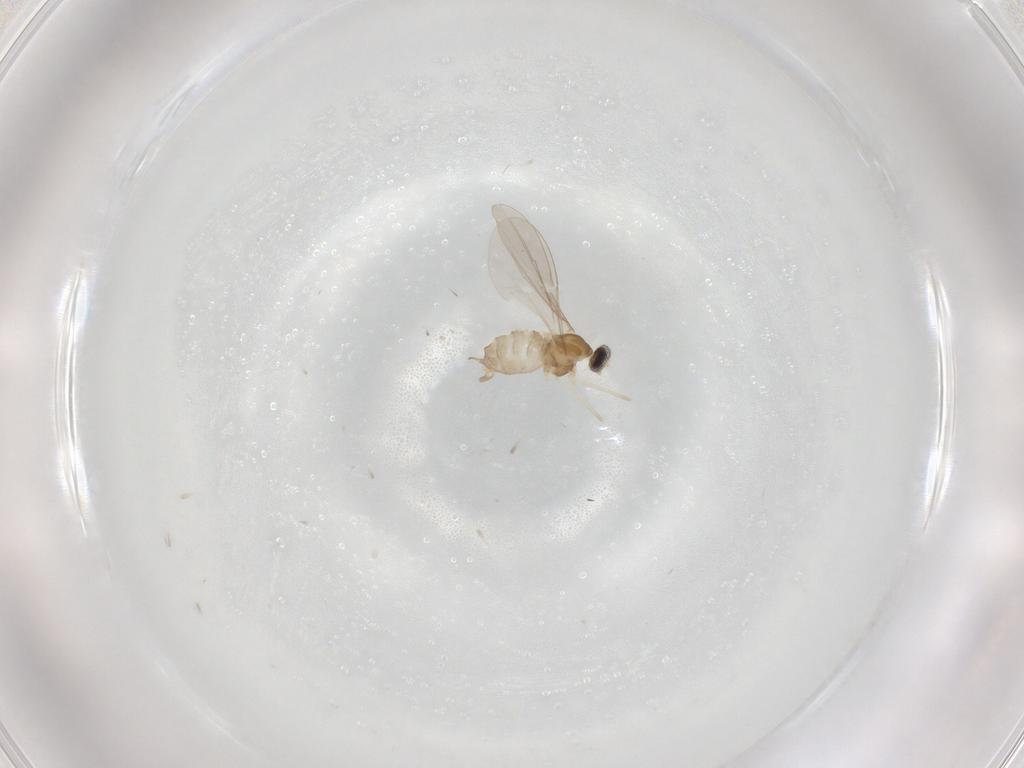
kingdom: Animalia
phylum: Arthropoda
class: Insecta
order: Diptera
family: Cecidomyiidae
